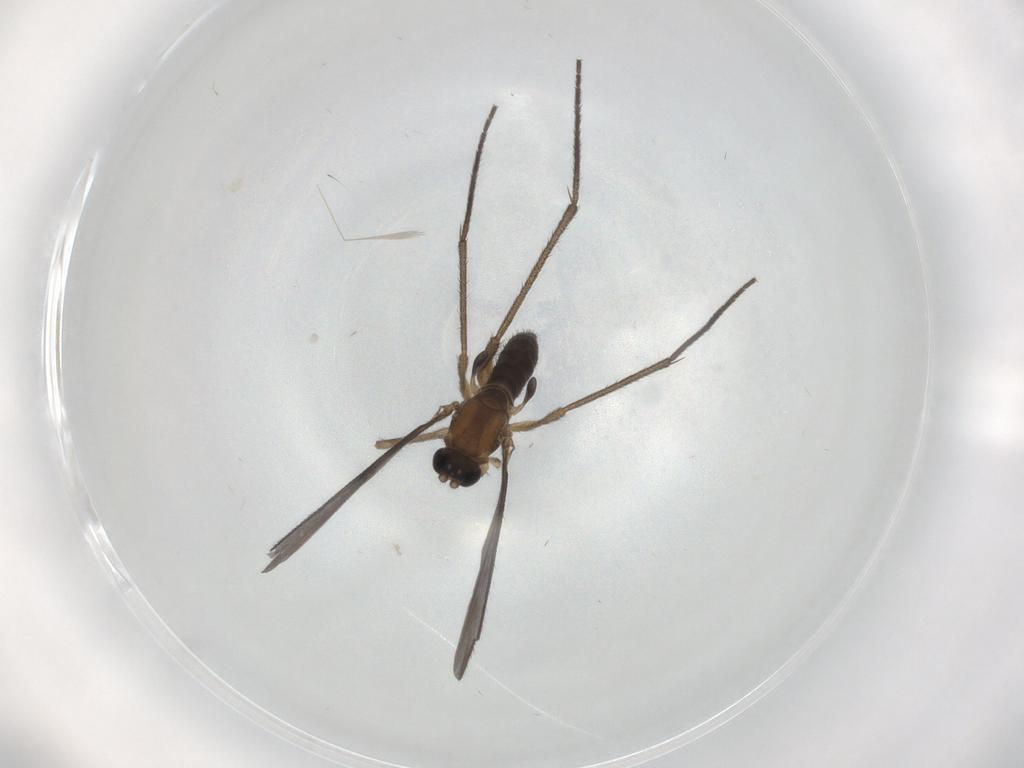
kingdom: Animalia
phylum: Arthropoda
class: Insecta
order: Diptera
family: Sciaridae
